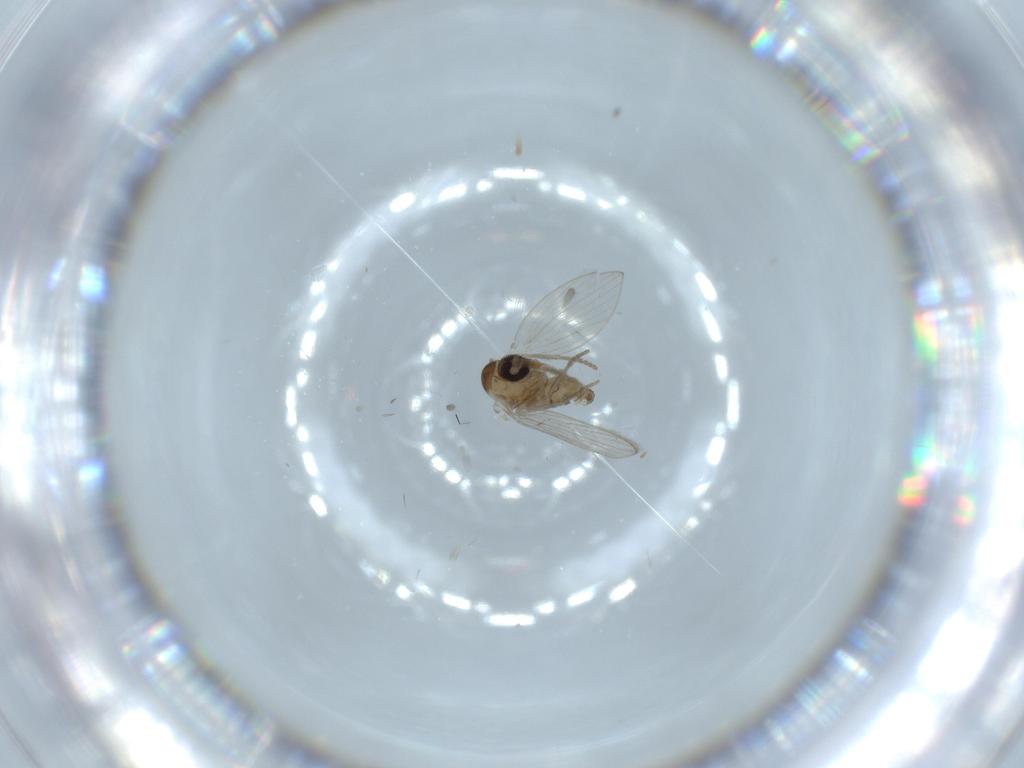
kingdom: Animalia
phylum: Arthropoda
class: Insecta
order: Diptera
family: Psychodidae
